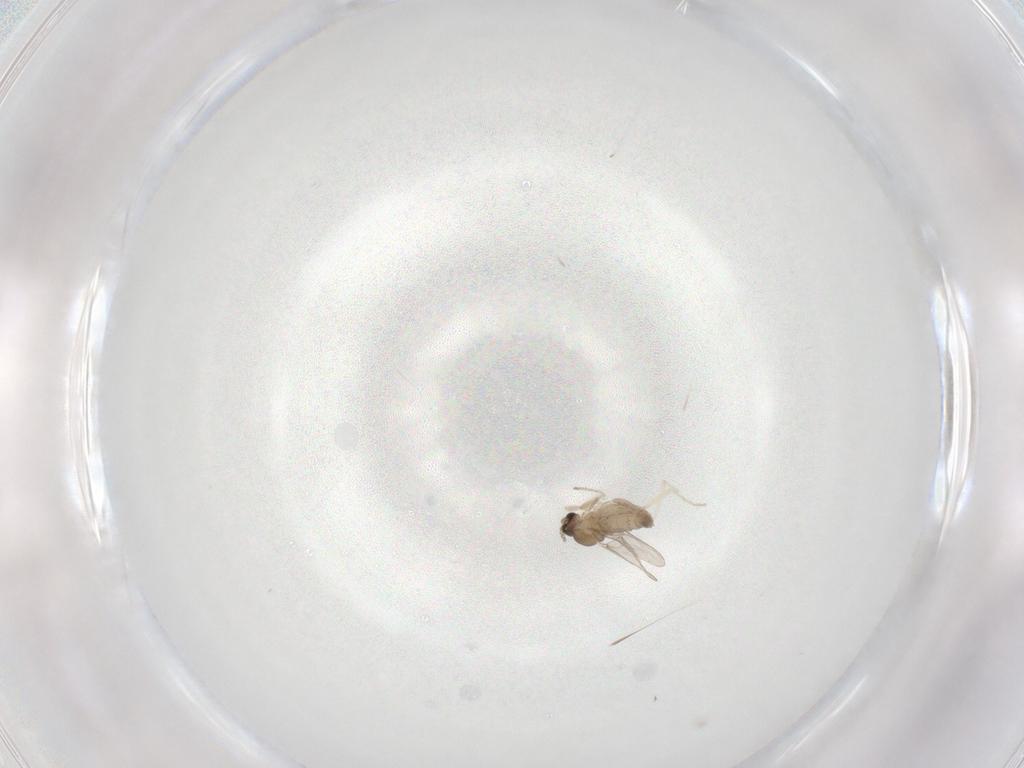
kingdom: Animalia
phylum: Arthropoda
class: Insecta
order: Diptera
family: Cecidomyiidae
